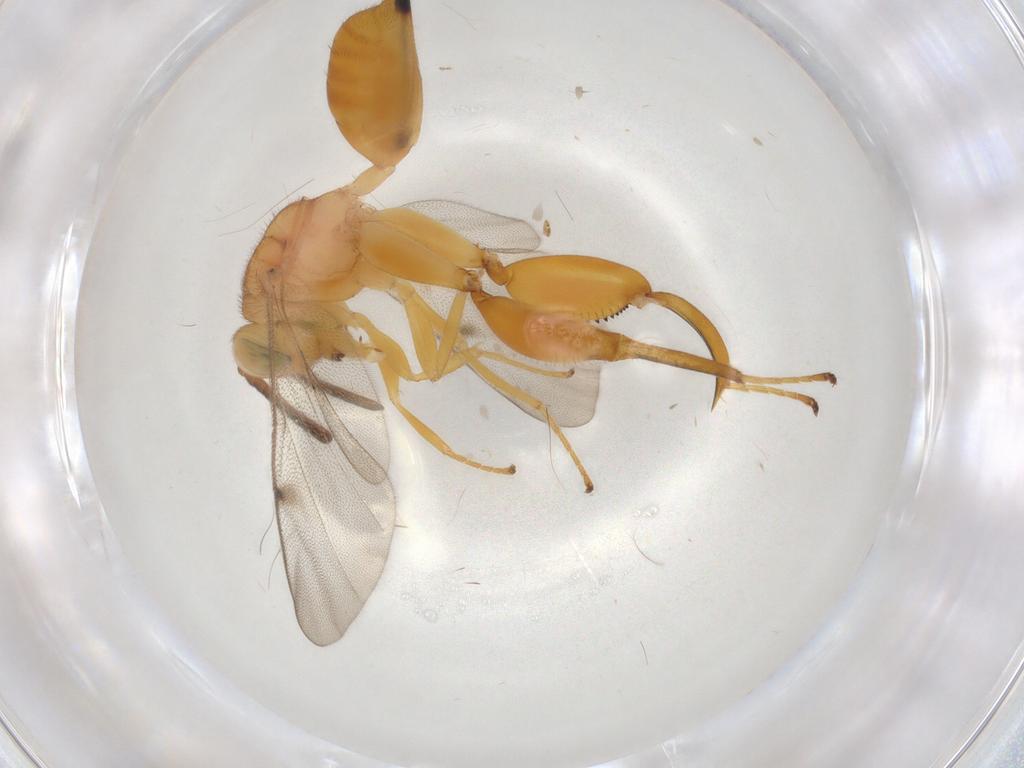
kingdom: Animalia
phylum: Arthropoda
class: Insecta
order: Hymenoptera
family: Chalcididae
